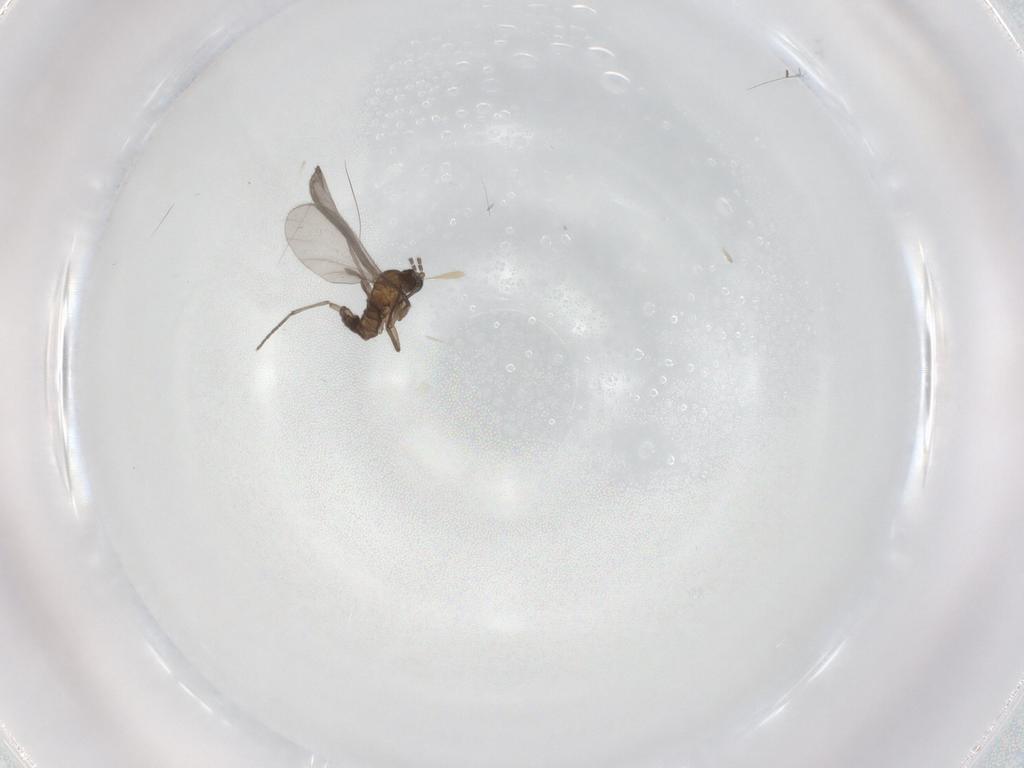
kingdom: Animalia
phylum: Arthropoda
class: Insecta
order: Diptera
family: Sciaridae
